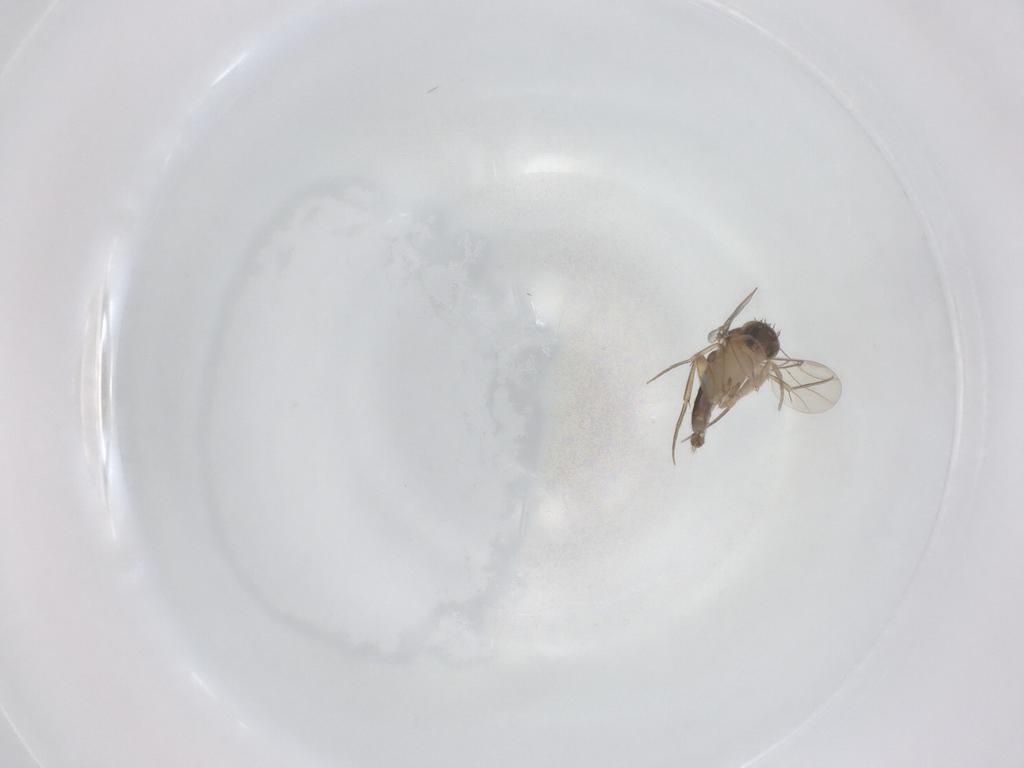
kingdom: Animalia
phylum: Arthropoda
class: Insecta
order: Diptera
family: Phoridae
